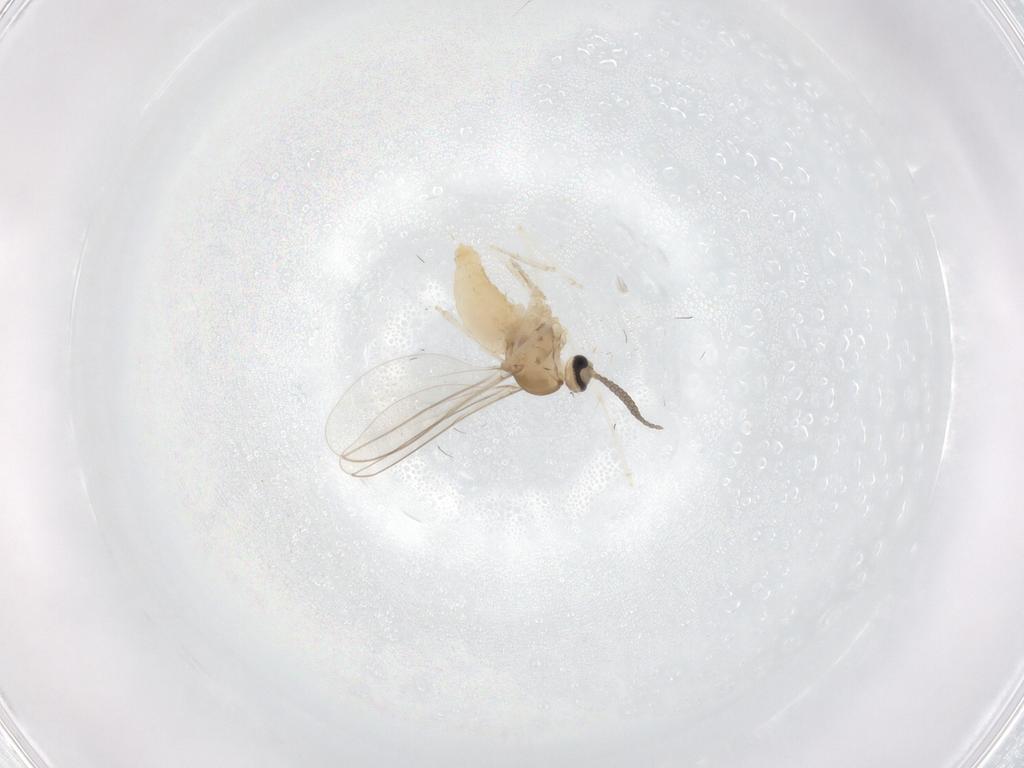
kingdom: Animalia
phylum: Arthropoda
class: Insecta
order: Diptera
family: Cecidomyiidae
